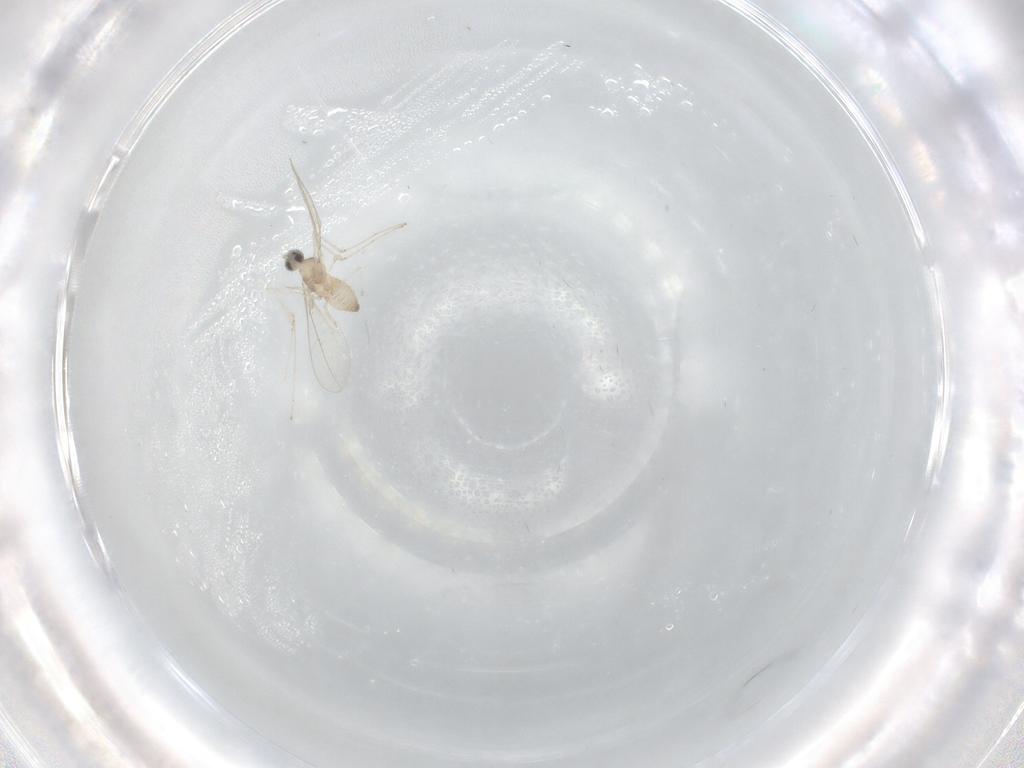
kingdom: Animalia
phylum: Arthropoda
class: Insecta
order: Diptera
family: Cecidomyiidae
